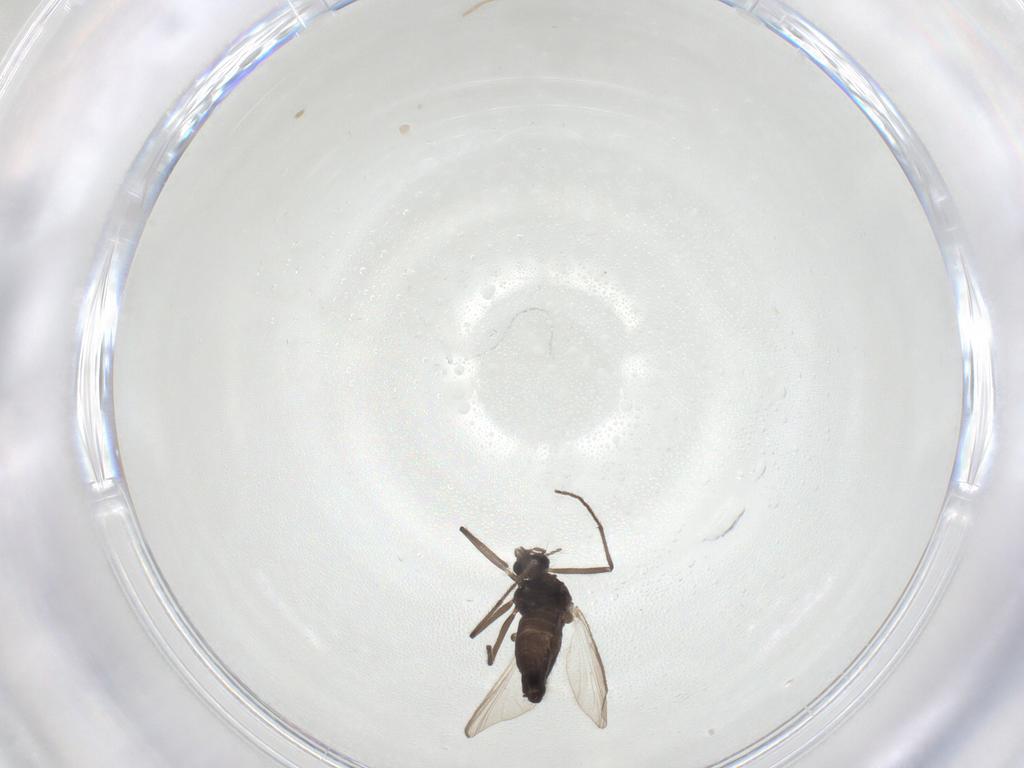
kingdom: Animalia
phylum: Arthropoda
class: Insecta
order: Diptera
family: Chironomidae
